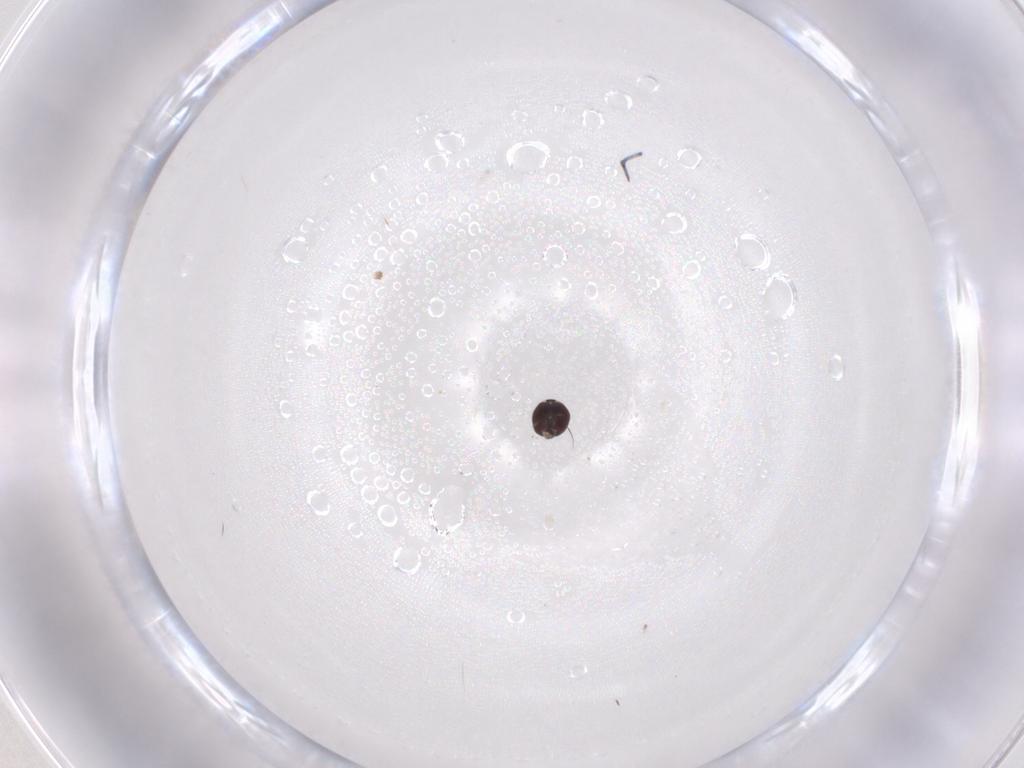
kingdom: Animalia
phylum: Arthropoda
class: Insecta
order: Diptera
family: Bombyliidae
